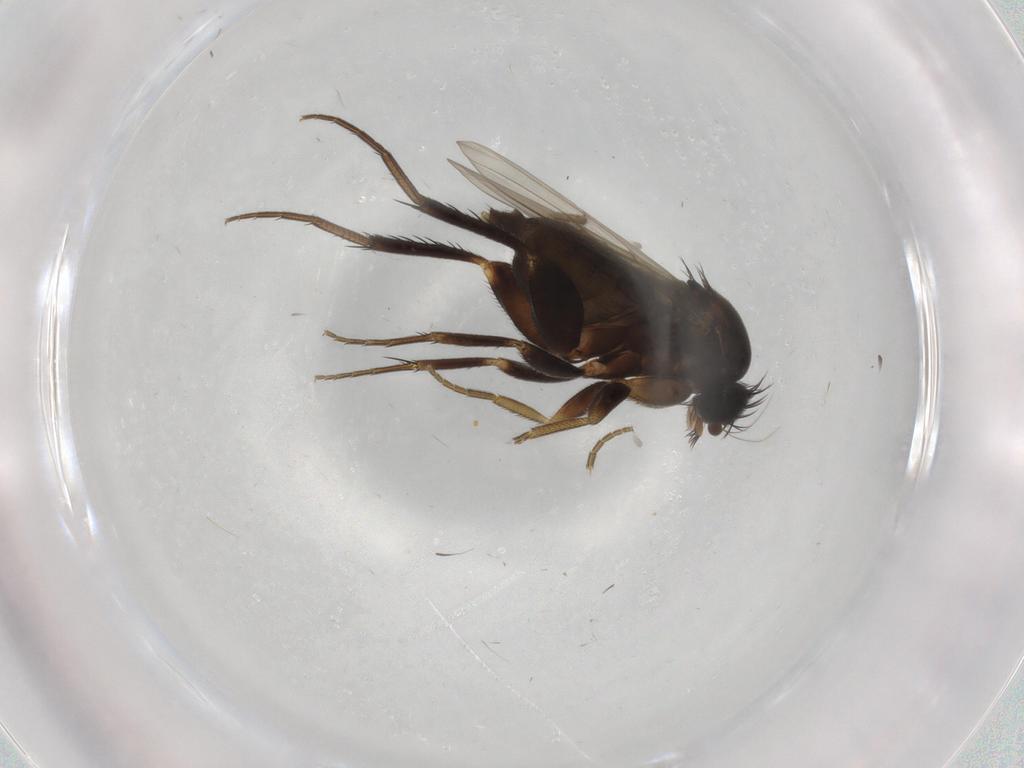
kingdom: Animalia
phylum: Arthropoda
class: Insecta
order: Diptera
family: Phoridae
